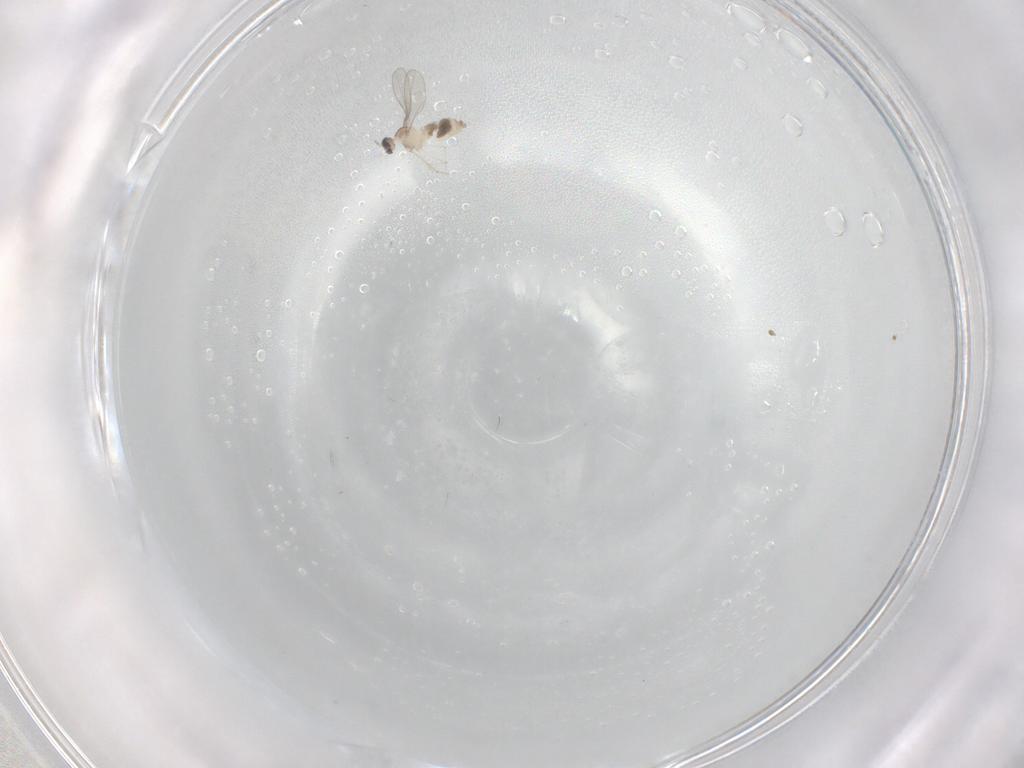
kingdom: Animalia
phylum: Arthropoda
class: Insecta
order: Diptera
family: Cecidomyiidae
